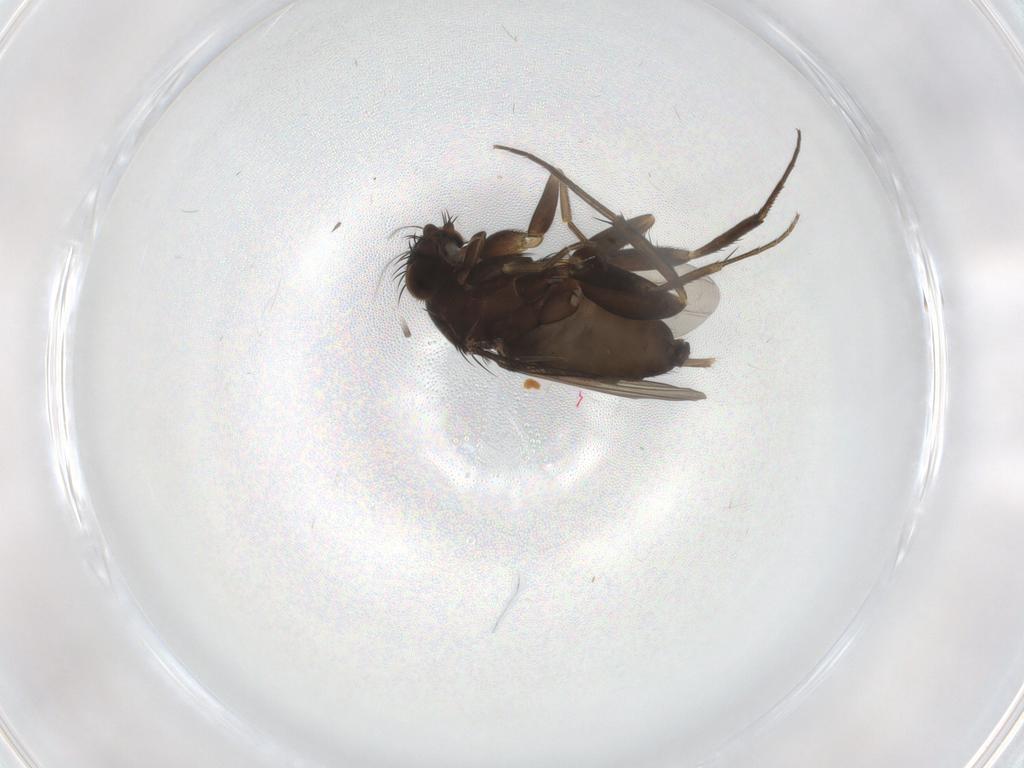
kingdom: Animalia
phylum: Arthropoda
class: Insecta
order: Diptera
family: Phoridae
